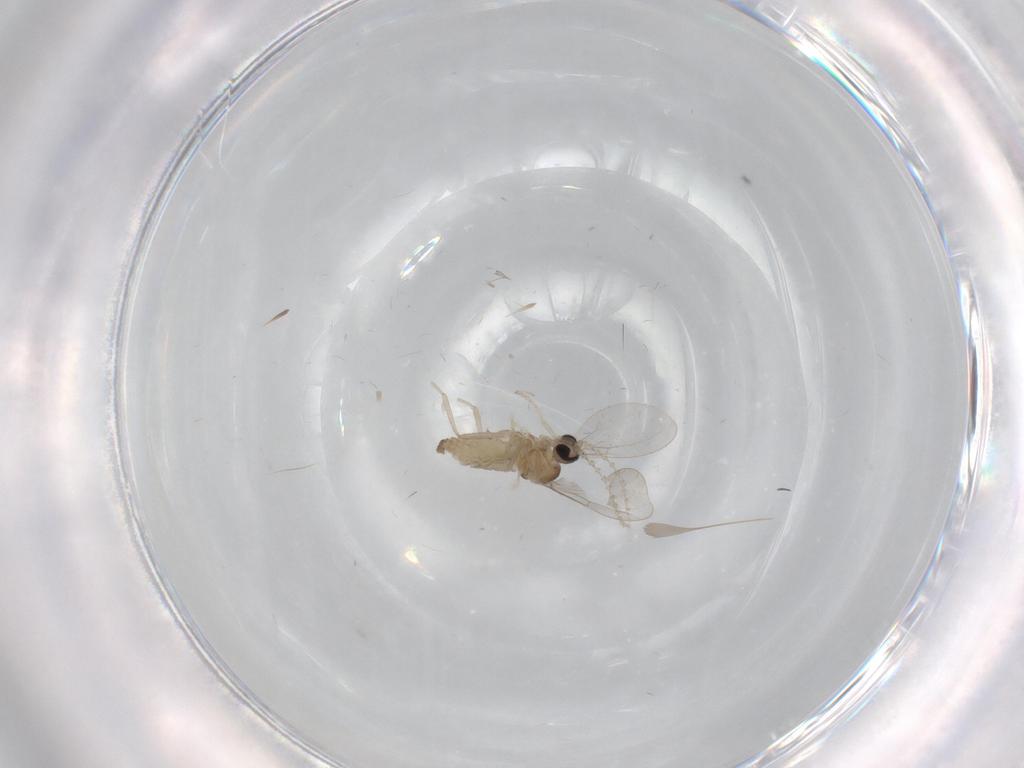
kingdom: Animalia
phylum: Arthropoda
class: Insecta
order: Diptera
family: Cecidomyiidae
